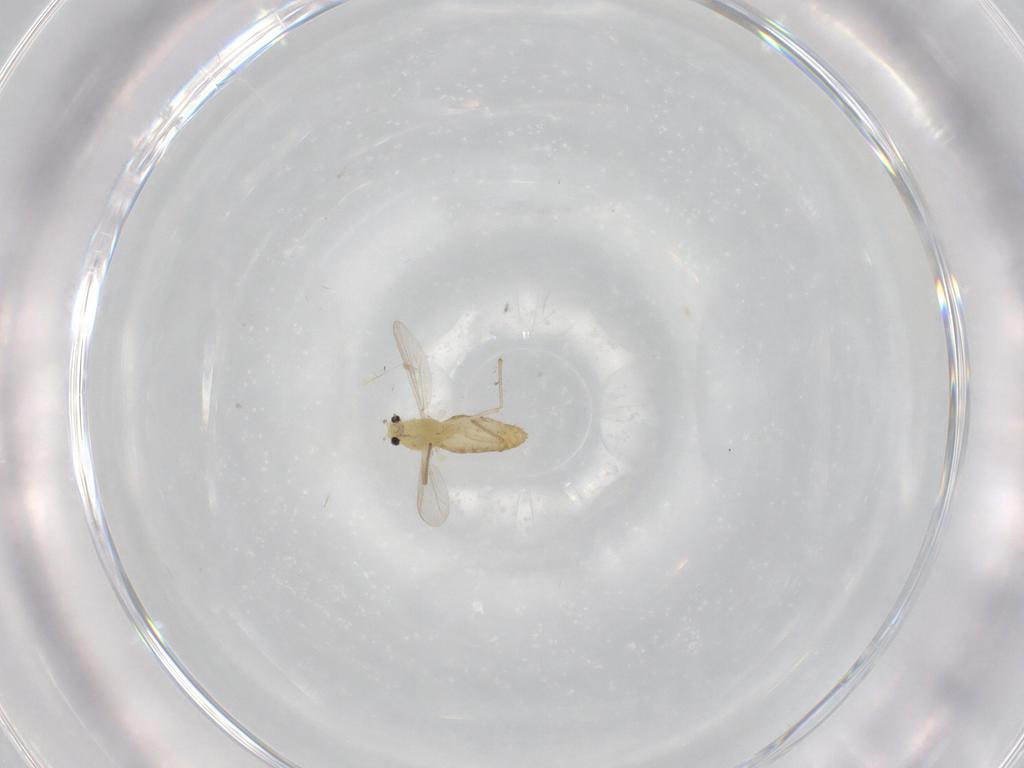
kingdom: Animalia
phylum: Arthropoda
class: Insecta
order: Diptera
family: Chironomidae
